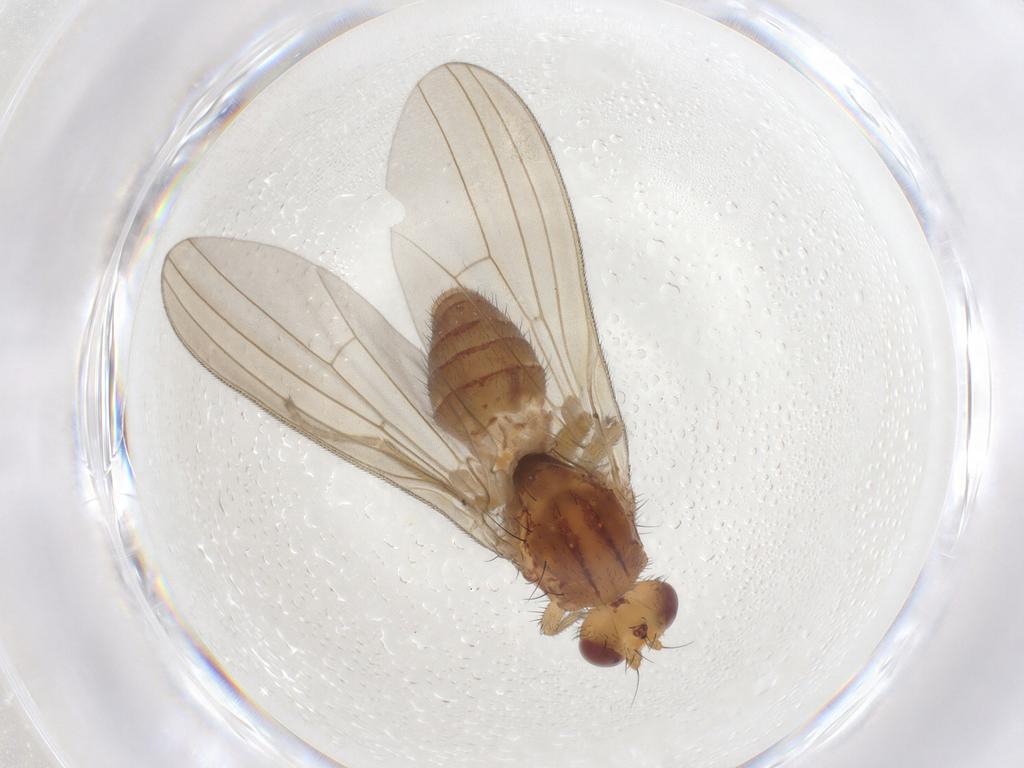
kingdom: Animalia
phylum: Arthropoda
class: Insecta
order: Diptera
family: Natalimyzidae
